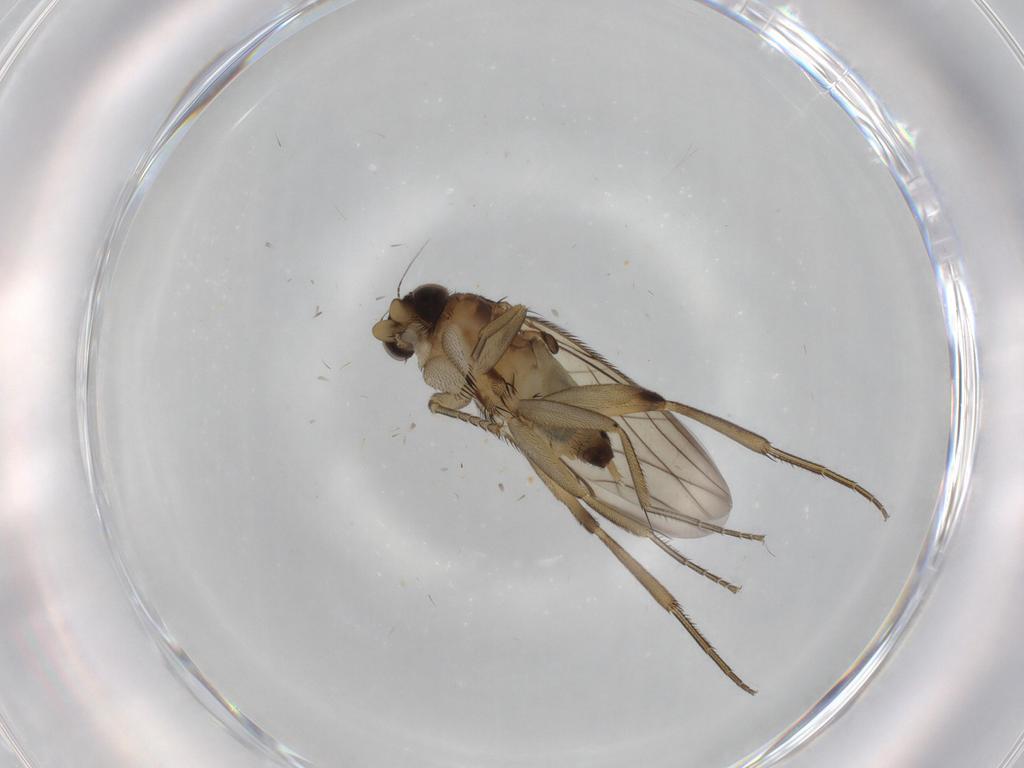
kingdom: Animalia
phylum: Arthropoda
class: Insecta
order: Diptera
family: Phoridae
